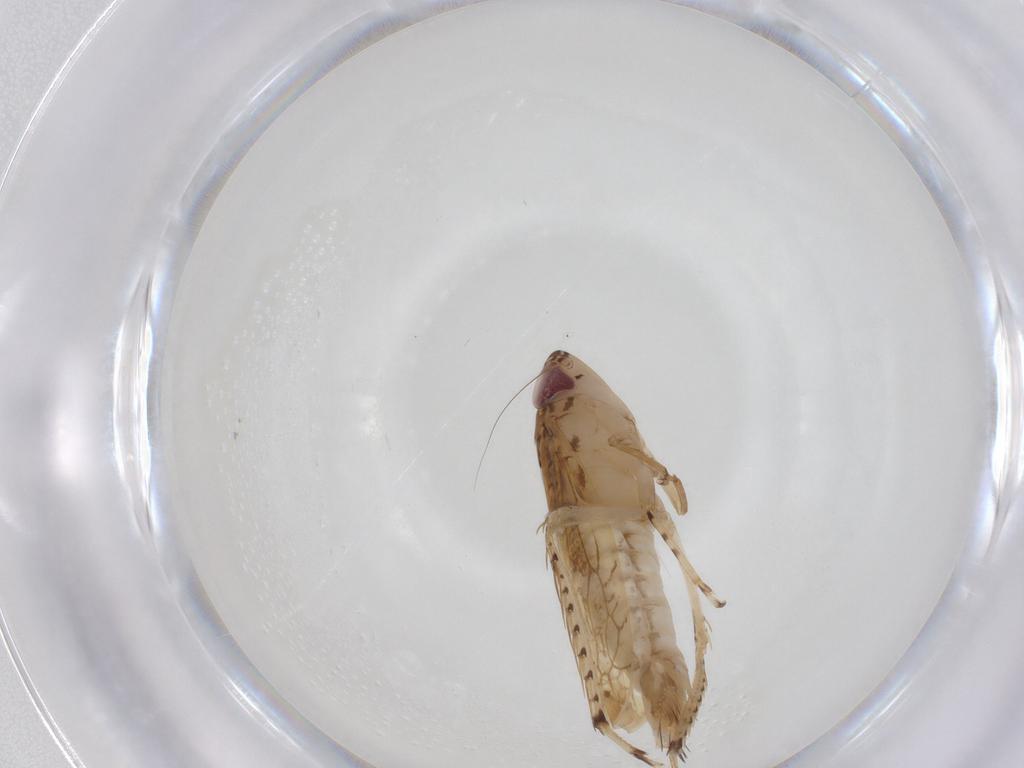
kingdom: Animalia
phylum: Arthropoda
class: Insecta
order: Hemiptera
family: Cicadellidae
